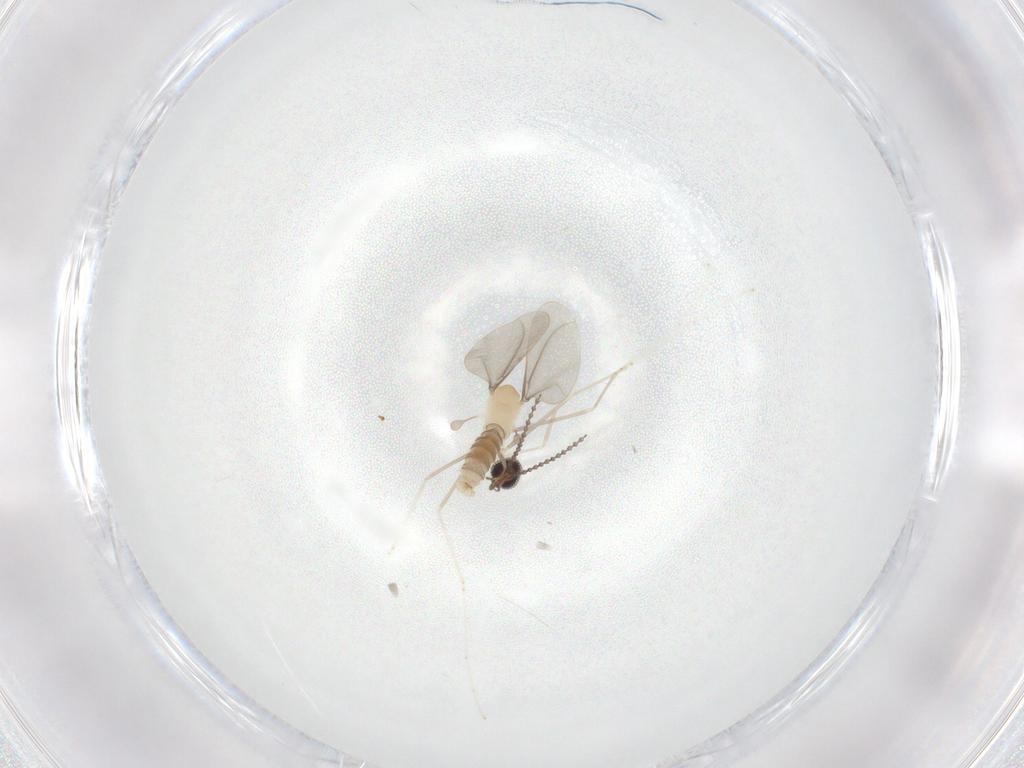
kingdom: Animalia
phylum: Arthropoda
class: Insecta
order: Diptera
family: Cecidomyiidae
